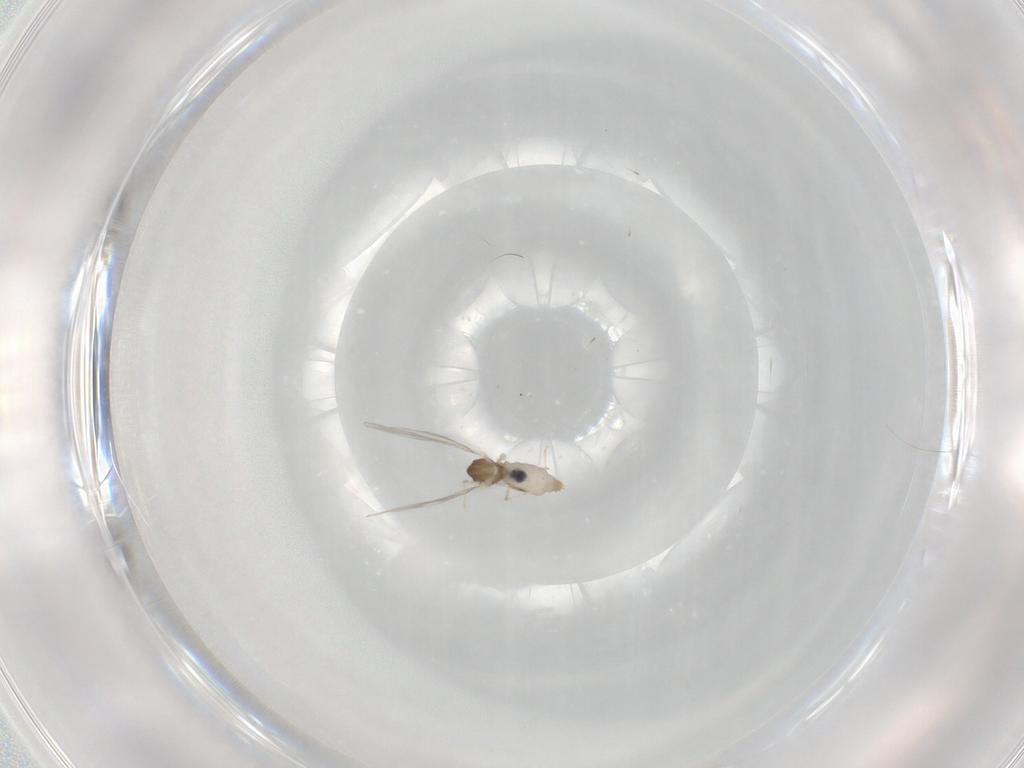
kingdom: Animalia
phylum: Arthropoda
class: Insecta
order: Diptera
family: Cecidomyiidae
